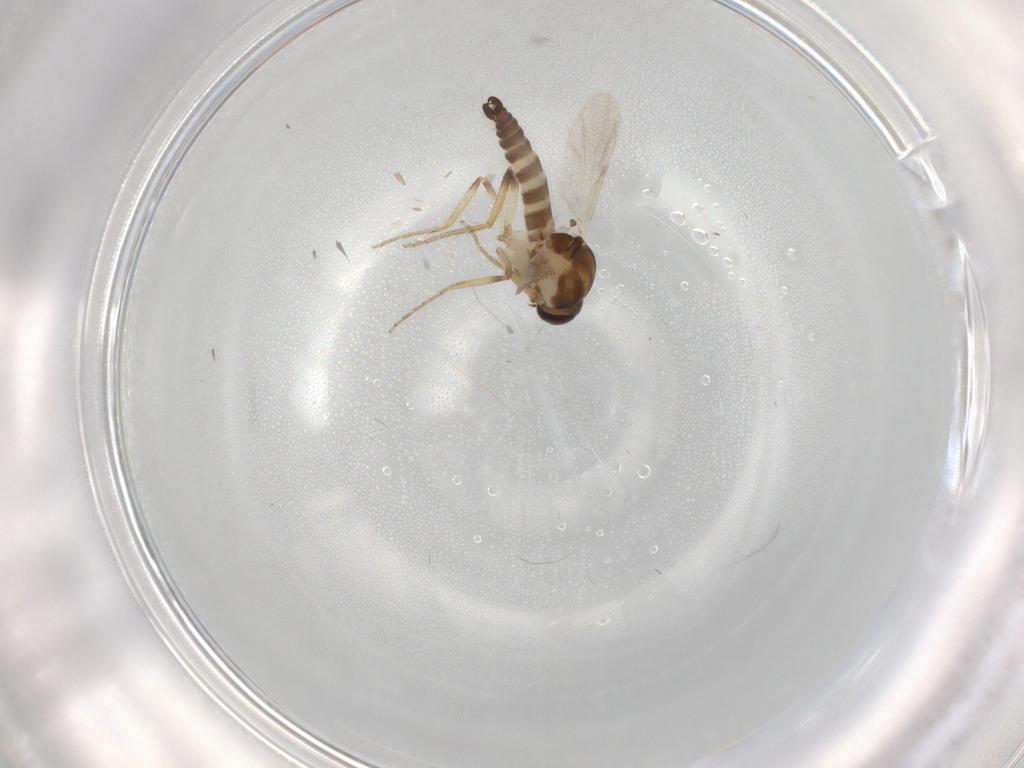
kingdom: Animalia
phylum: Arthropoda
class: Insecta
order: Diptera
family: Ceratopogonidae
